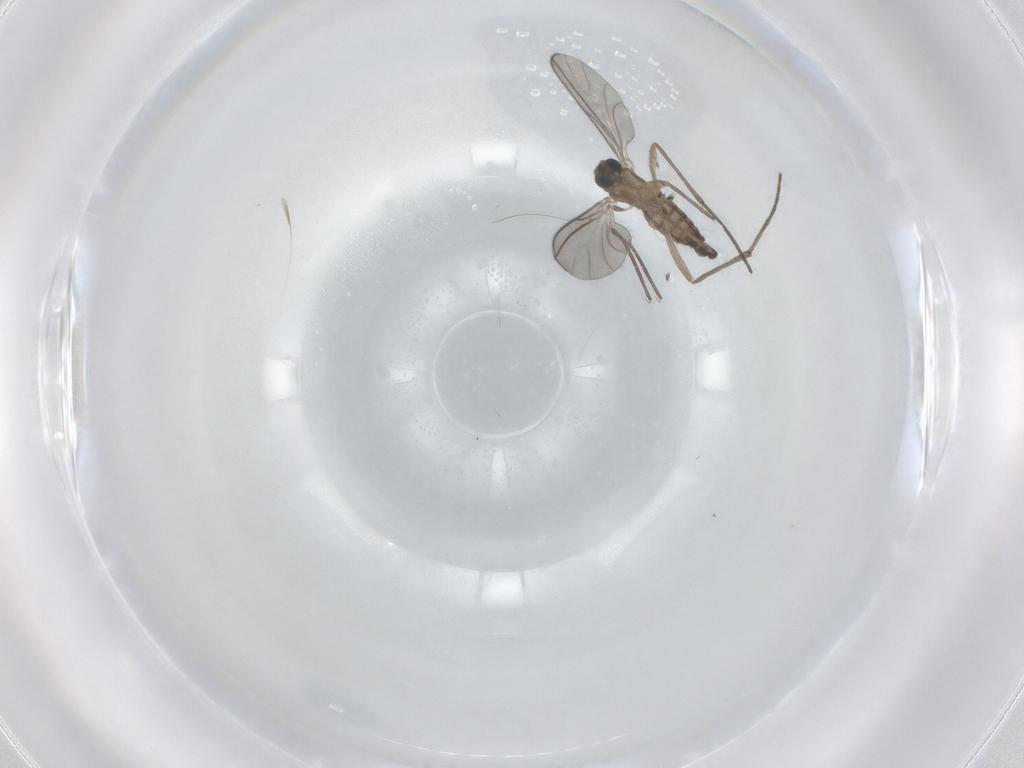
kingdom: Animalia
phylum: Arthropoda
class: Insecta
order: Diptera
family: Sciaridae
